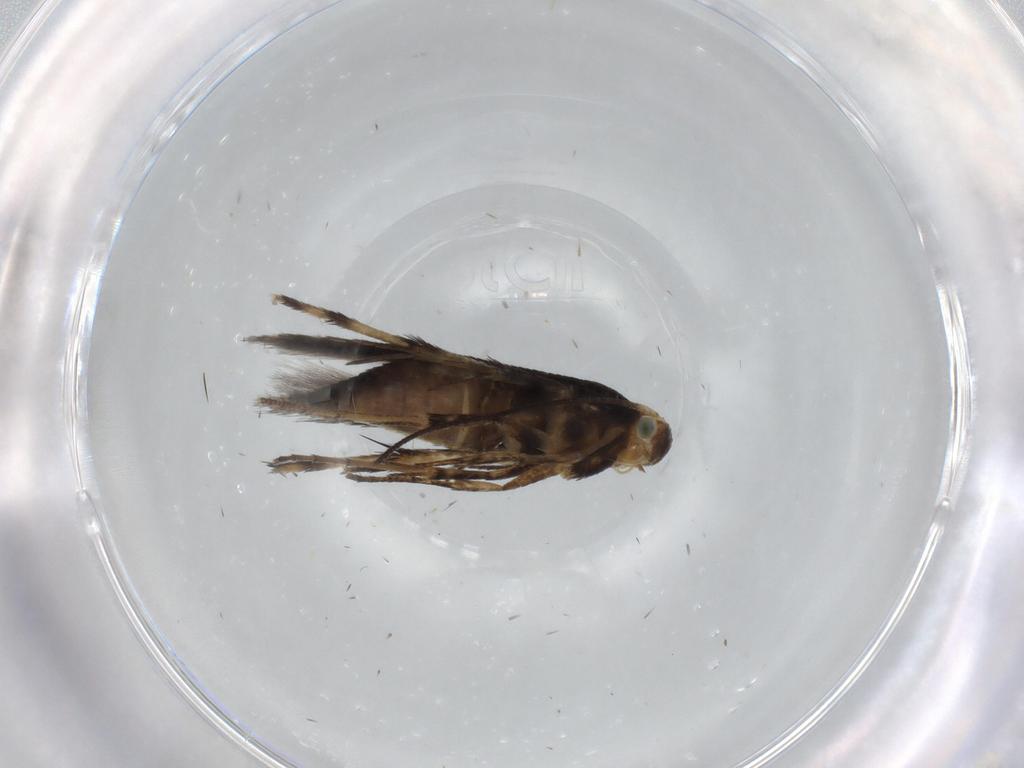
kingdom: Animalia
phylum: Arthropoda
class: Insecta
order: Lepidoptera
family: Heliodinidae
